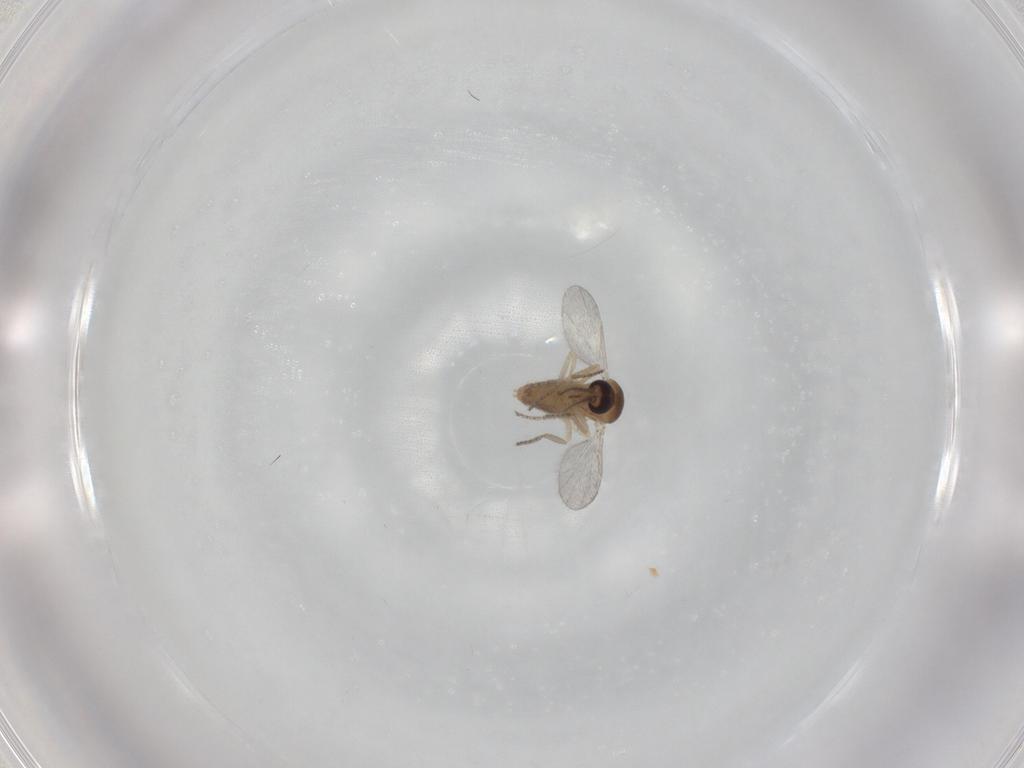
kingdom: Animalia
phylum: Arthropoda
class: Insecta
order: Diptera
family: Ceratopogonidae
